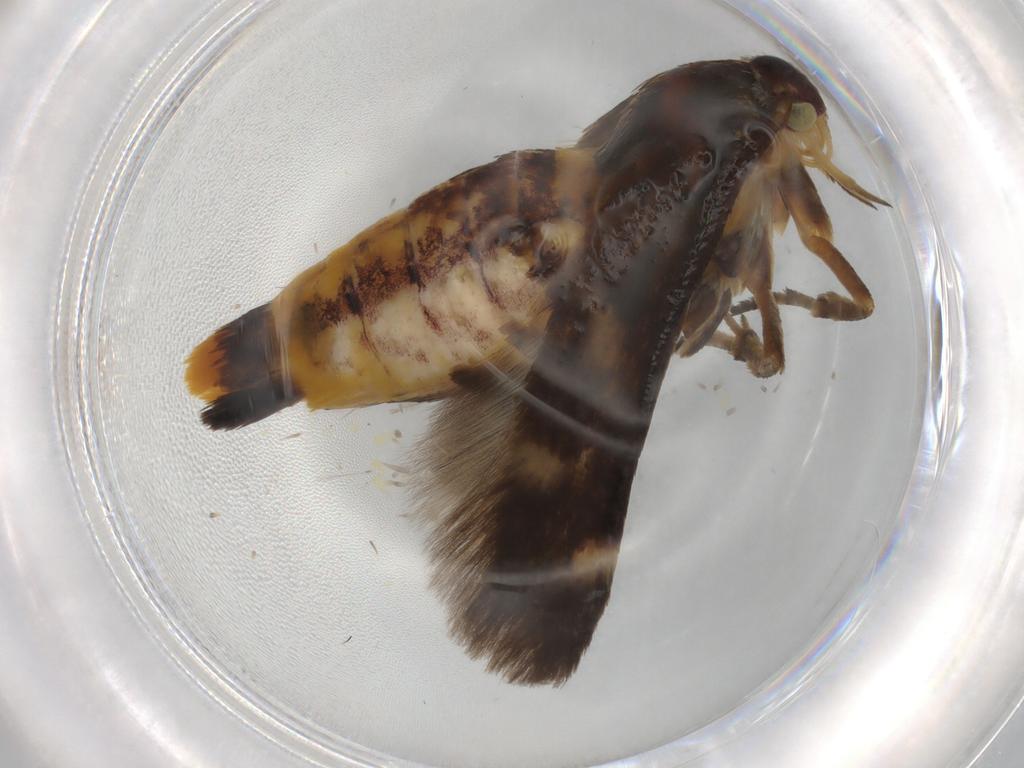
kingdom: Animalia
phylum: Arthropoda
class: Insecta
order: Lepidoptera
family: Scythrididae
